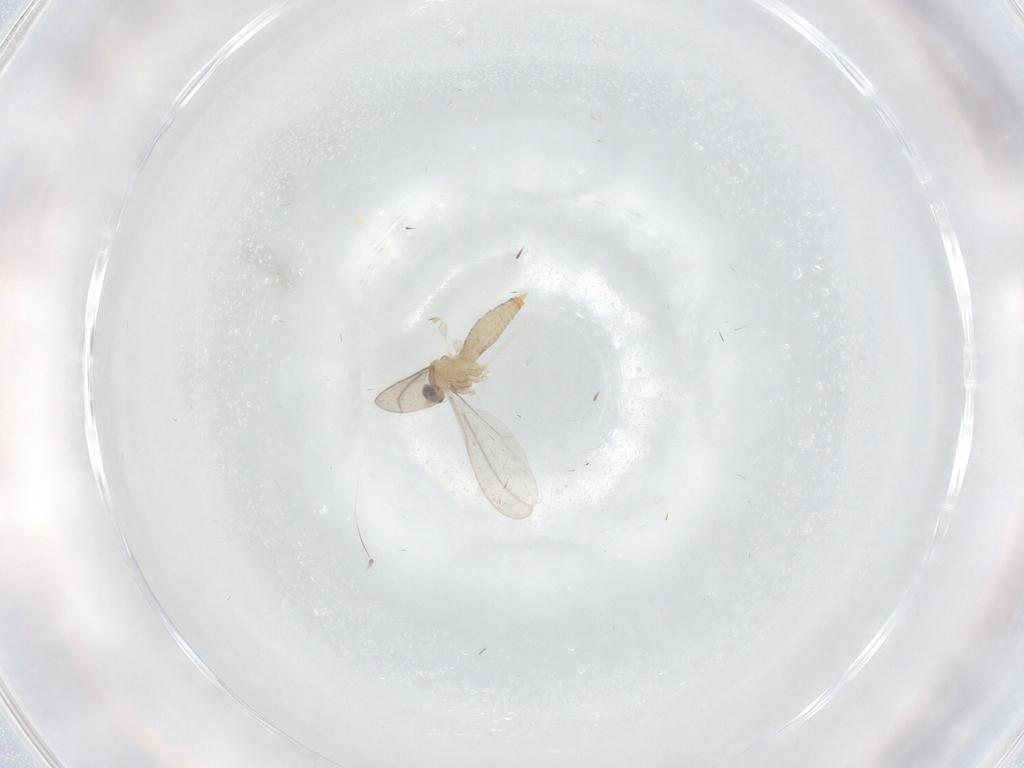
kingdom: Animalia
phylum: Arthropoda
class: Insecta
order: Diptera
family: Cecidomyiidae
